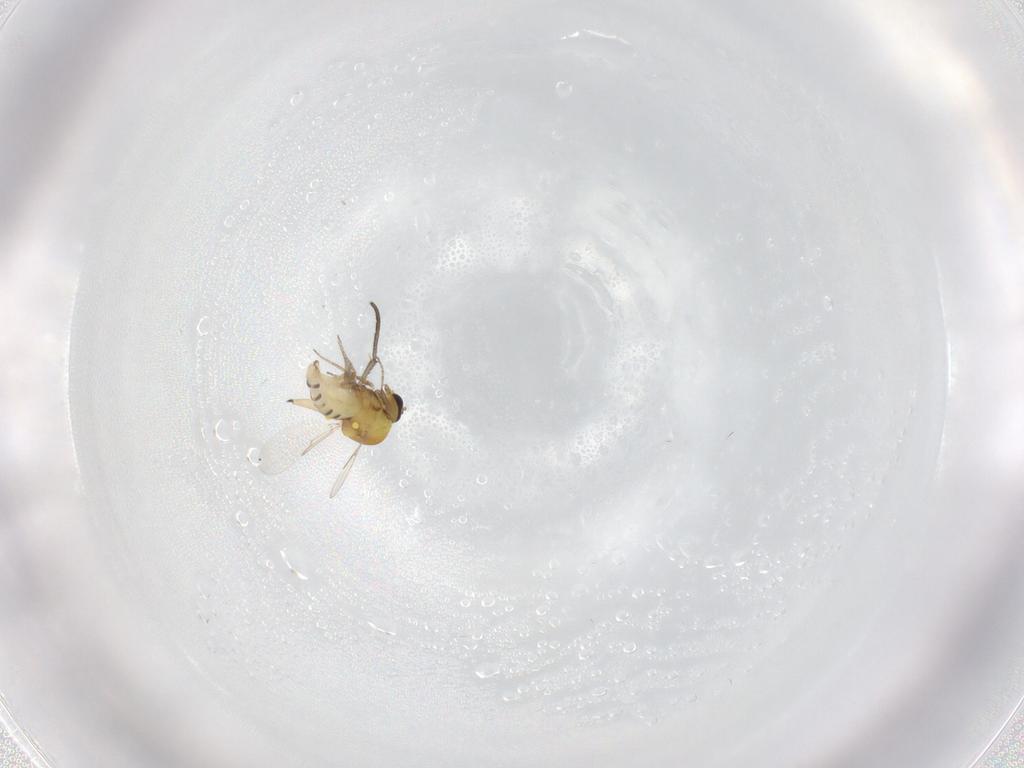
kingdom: Animalia
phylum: Arthropoda
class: Insecta
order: Diptera
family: Ceratopogonidae
